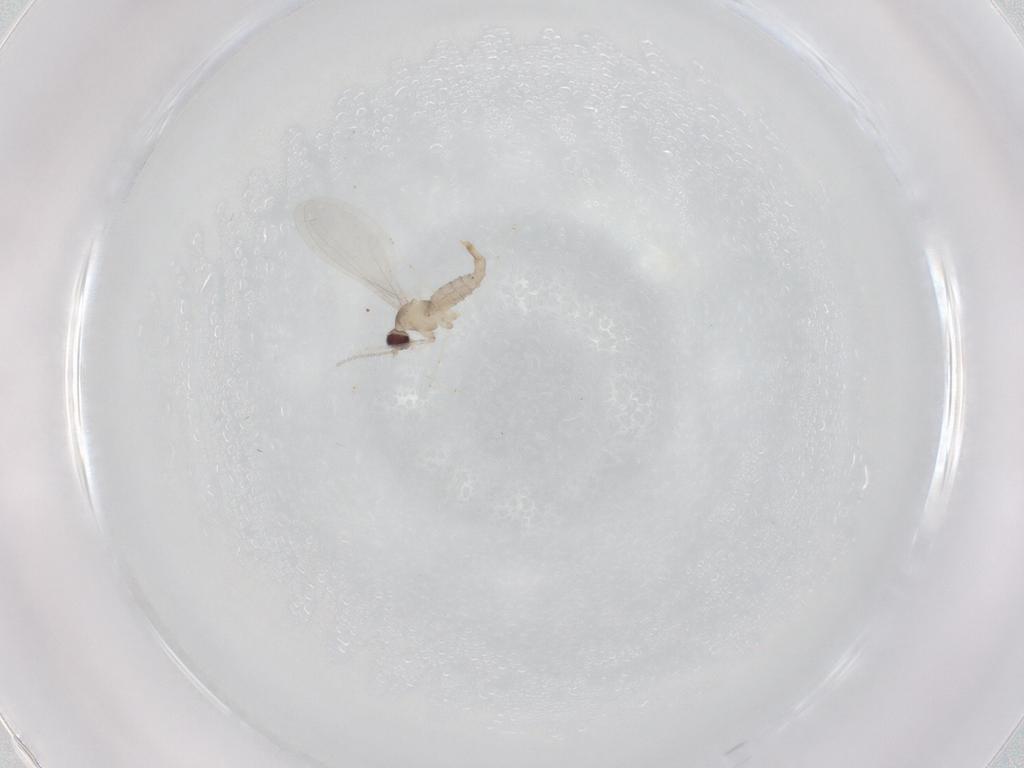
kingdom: Animalia
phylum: Arthropoda
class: Insecta
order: Diptera
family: Cecidomyiidae
